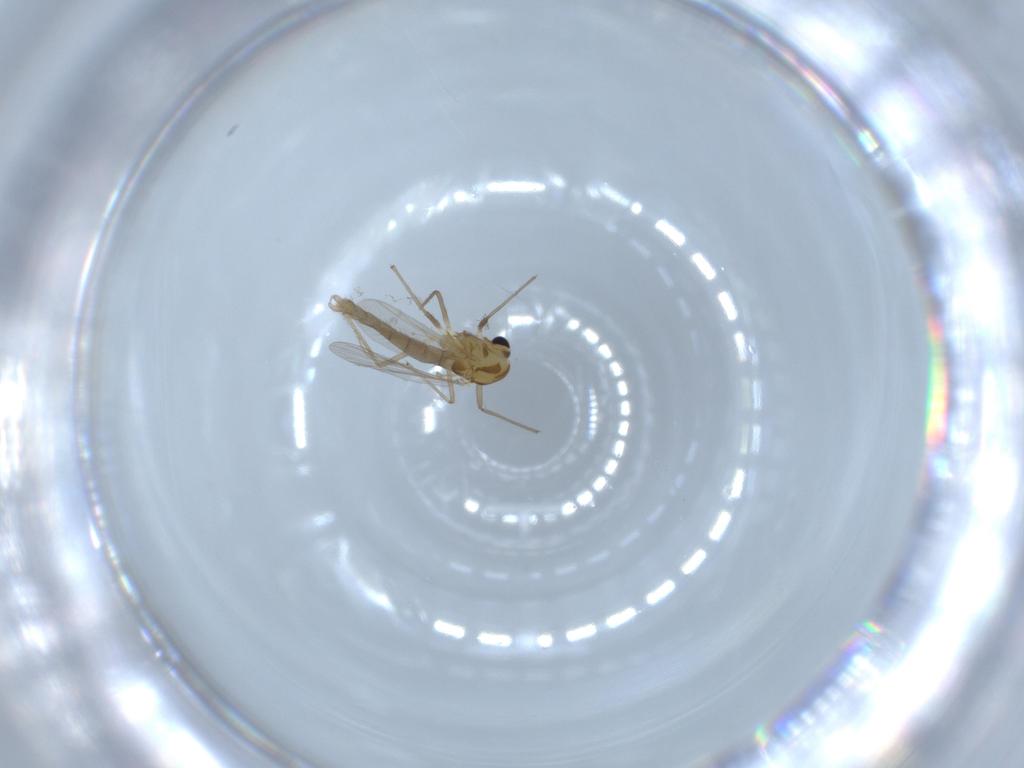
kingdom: Animalia
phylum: Arthropoda
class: Insecta
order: Diptera
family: Chironomidae
